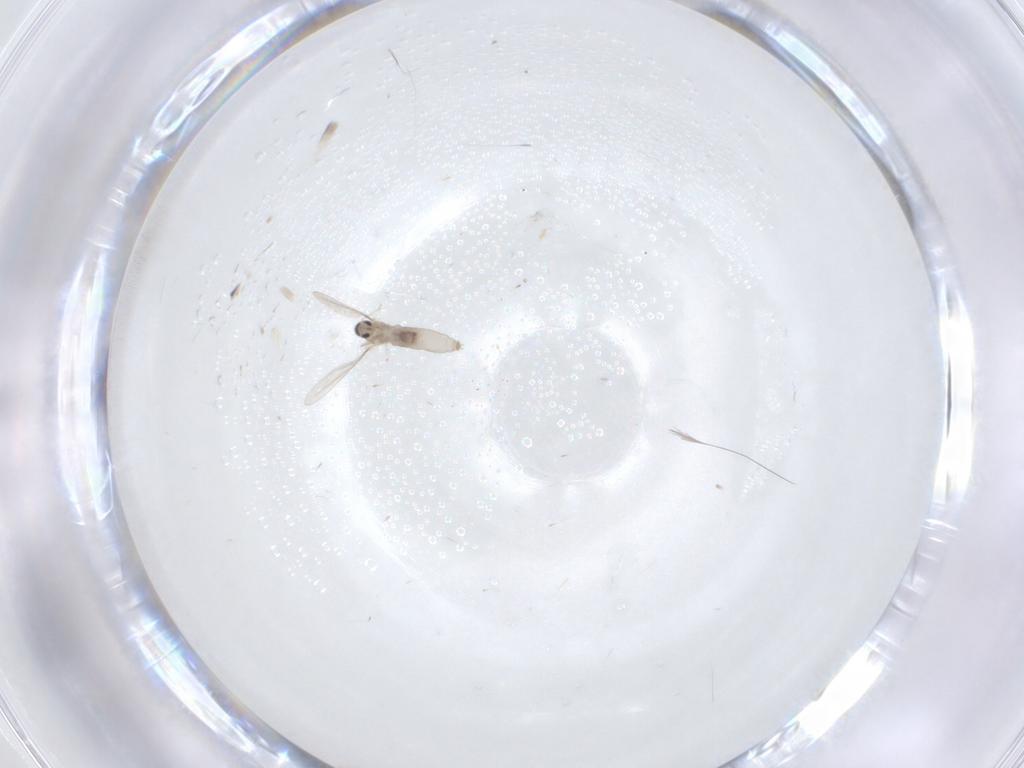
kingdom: Animalia
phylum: Arthropoda
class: Insecta
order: Diptera
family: Cecidomyiidae
